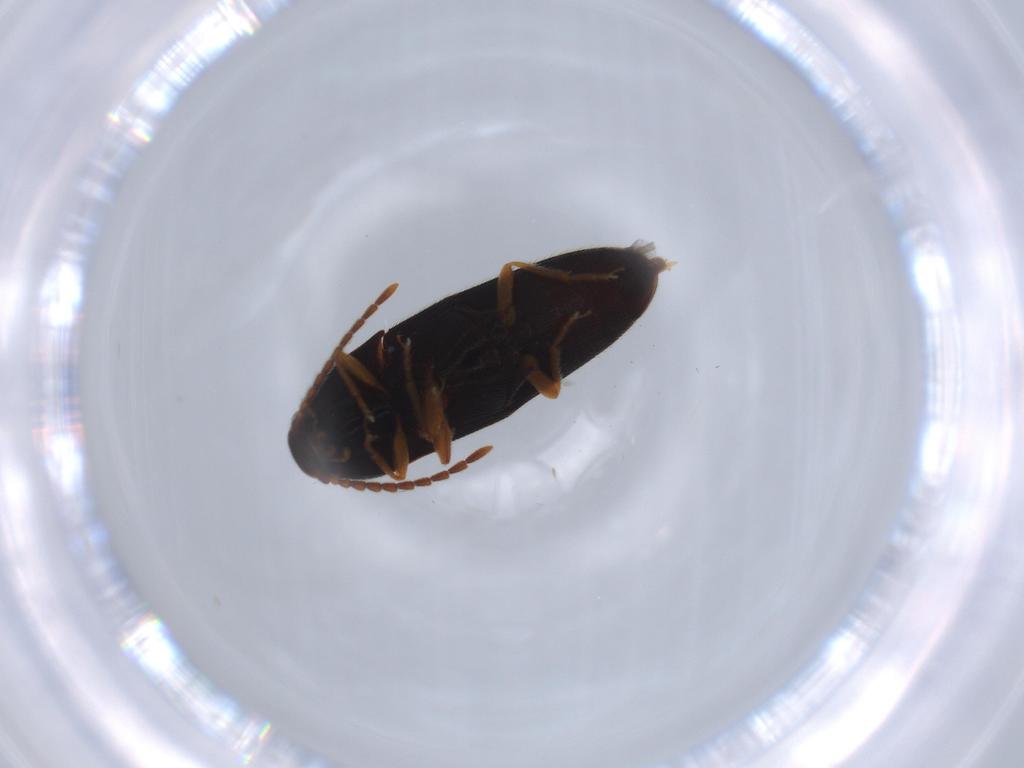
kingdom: Animalia
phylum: Arthropoda
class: Insecta
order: Coleoptera
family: Elateridae
